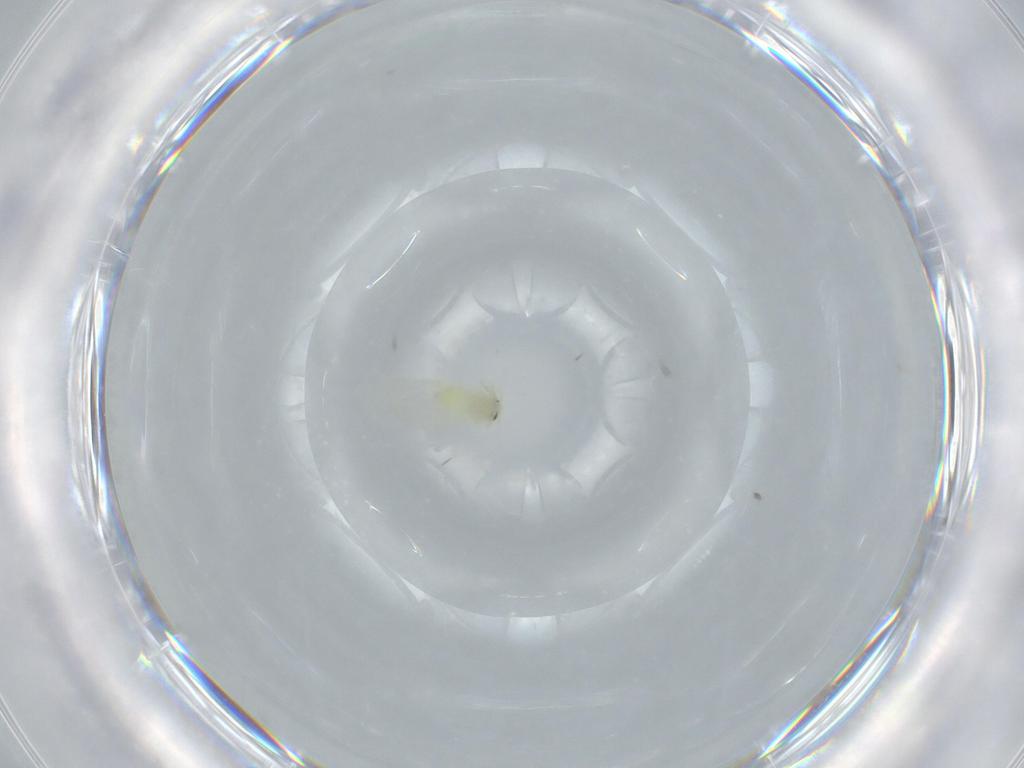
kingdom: Animalia
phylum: Arthropoda
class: Insecta
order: Hemiptera
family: Aleyrodidae
